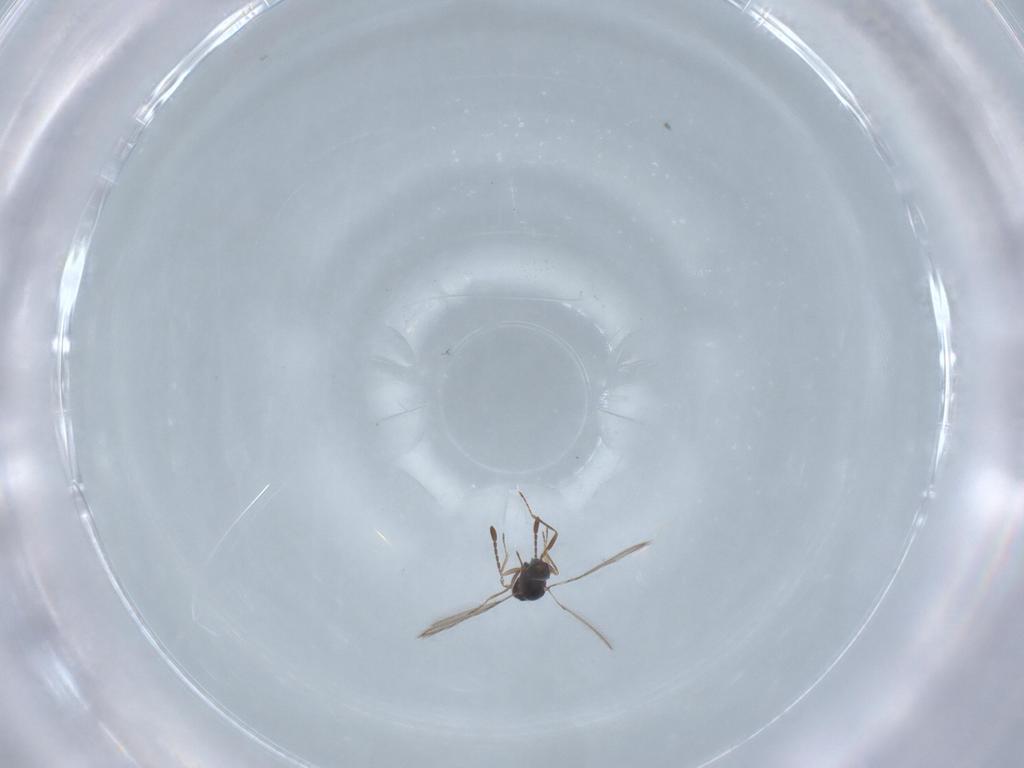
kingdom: Animalia
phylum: Arthropoda
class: Insecta
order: Hymenoptera
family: Mymaridae
